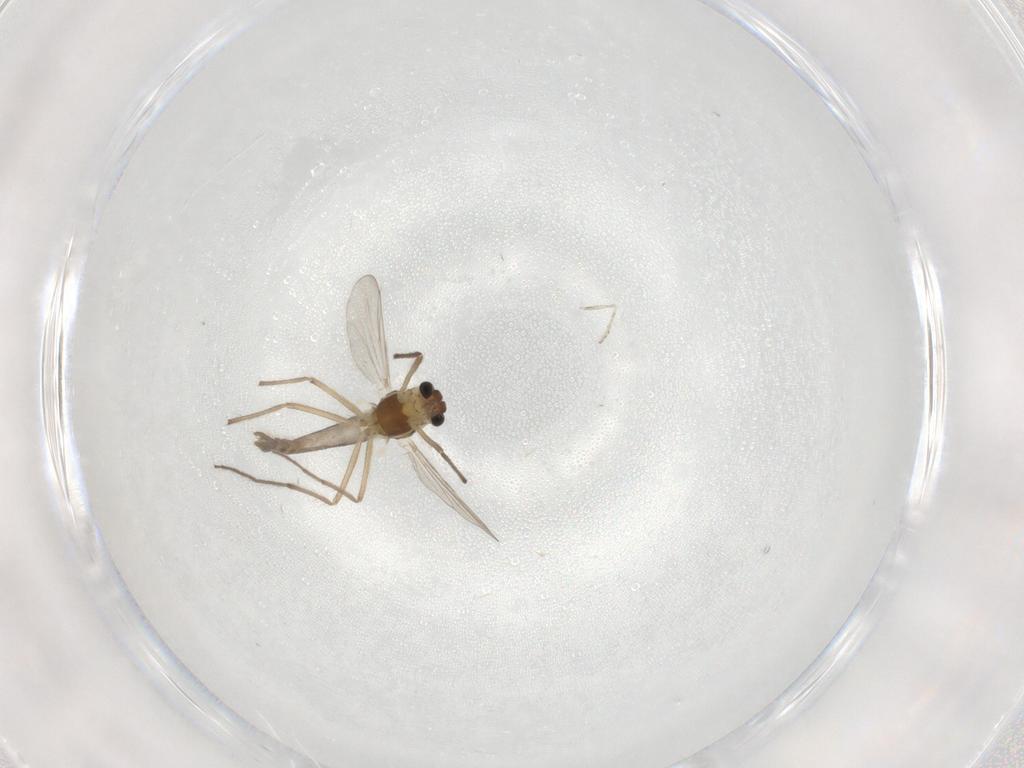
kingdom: Animalia
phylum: Arthropoda
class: Insecta
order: Diptera
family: Chironomidae
